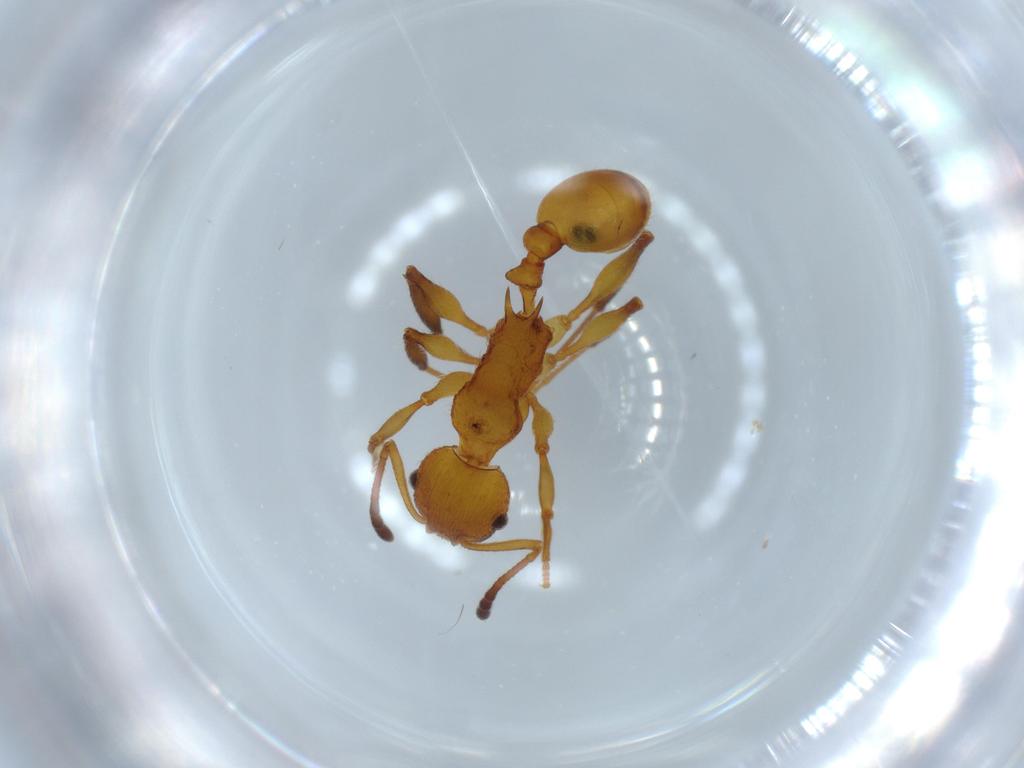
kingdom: Animalia
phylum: Arthropoda
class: Insecta
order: Hymenoptera
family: Formicidae
